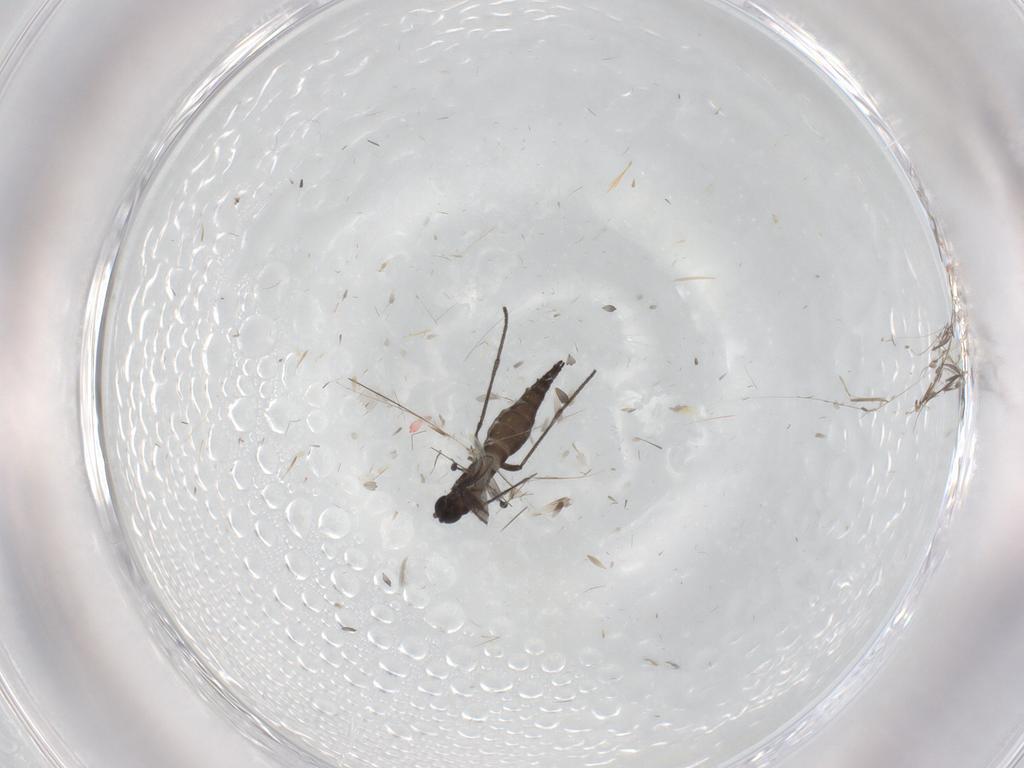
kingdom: Animalia
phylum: Arthropoda
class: Insecta
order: Diptera
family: Sciaridae
